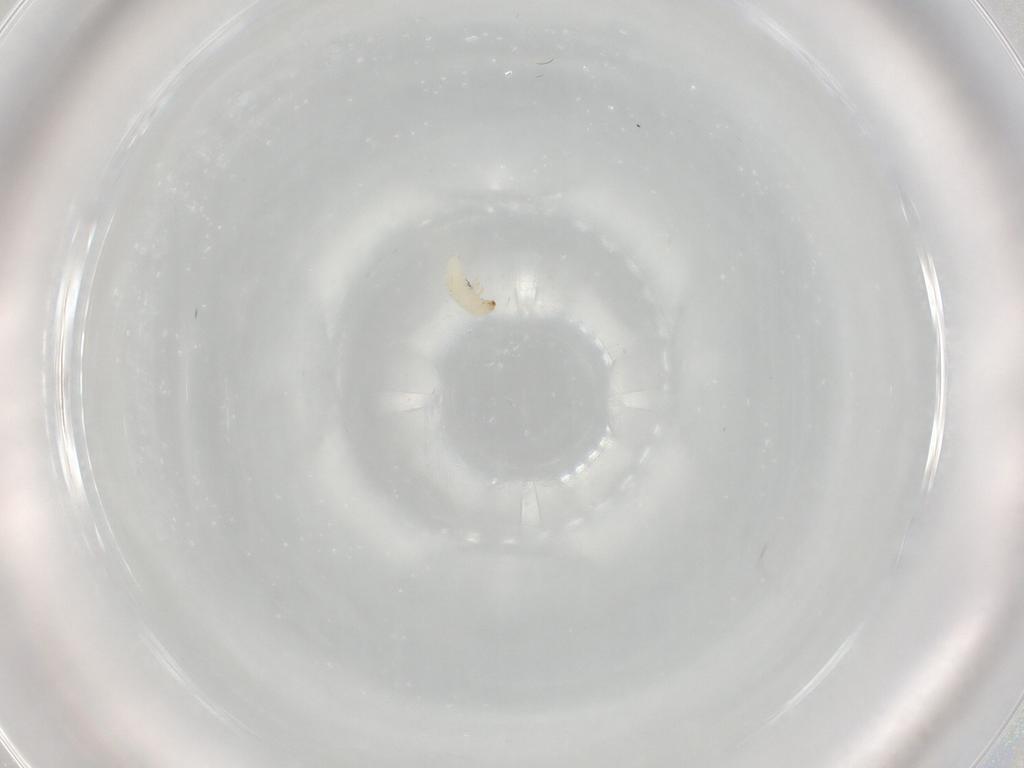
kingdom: Animalia
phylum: Arthropoda
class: Insecta
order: Coleoptera
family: Chrysomelidae
